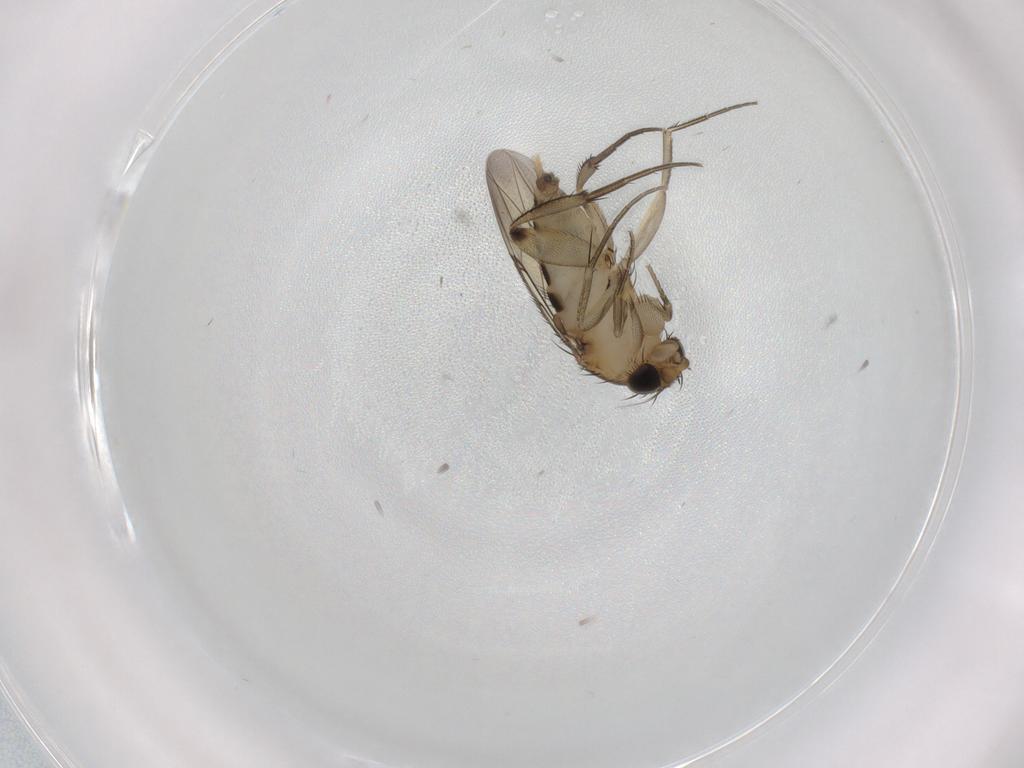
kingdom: Animalia
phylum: Arthropoda
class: Insecta
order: Diptera
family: Phoridae
